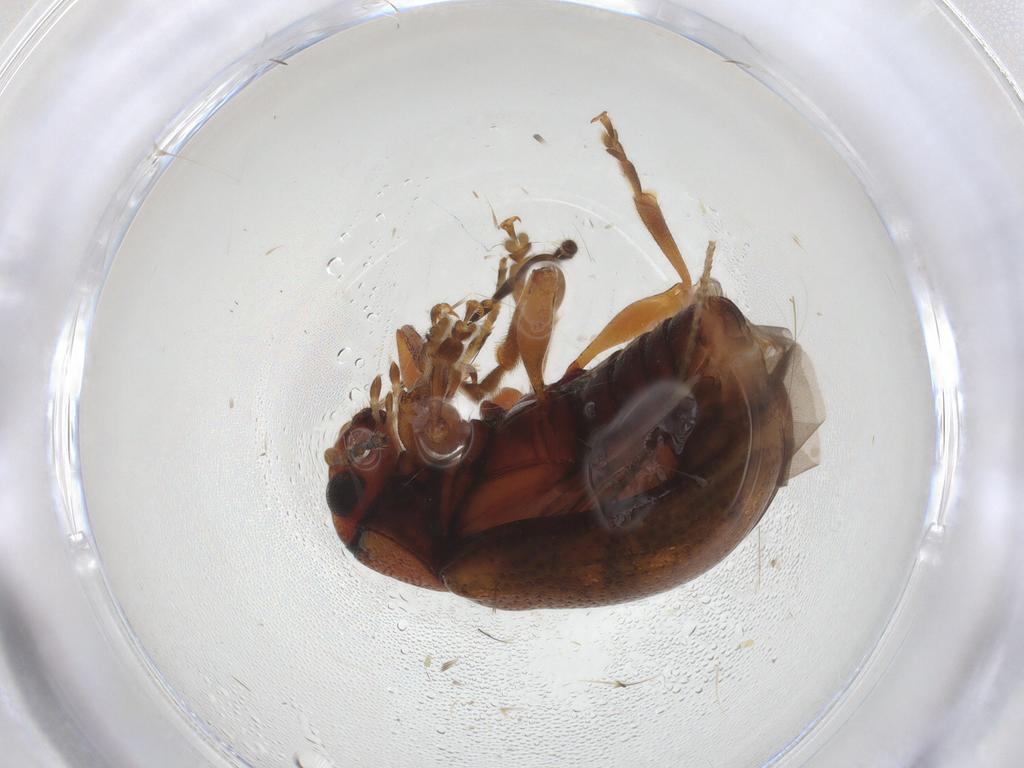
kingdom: Animalia
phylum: Arthropoda
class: Insecta
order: Coleoptera
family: Chrysomelidae
